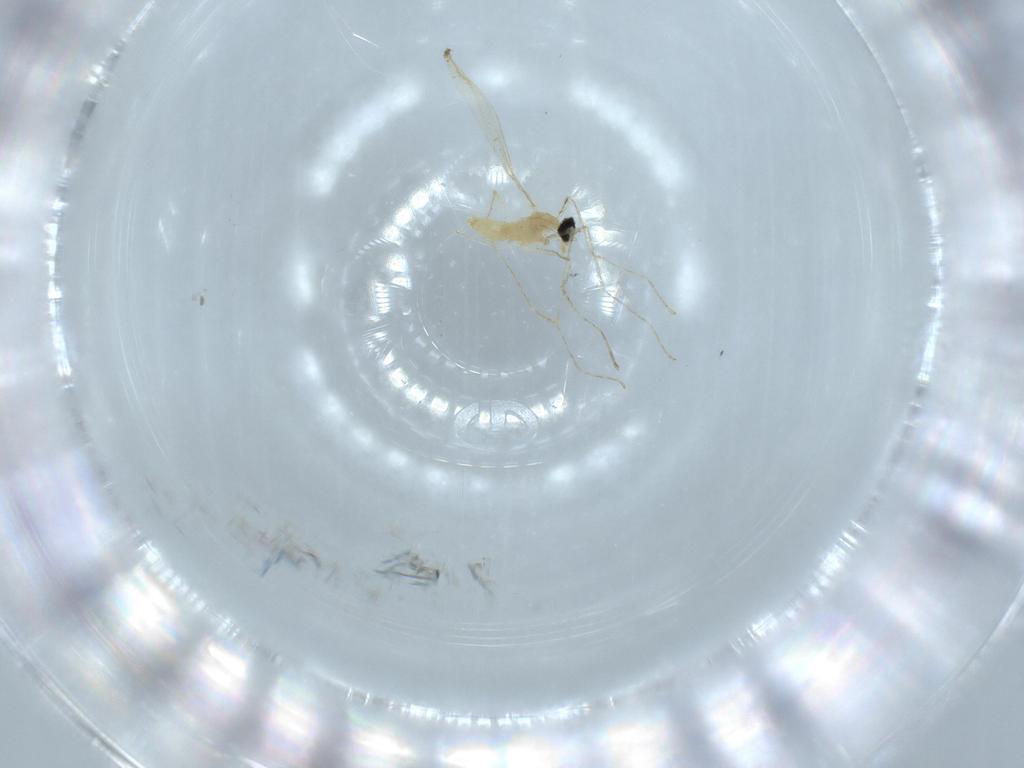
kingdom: Animalia
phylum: Arthropoda
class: Insecta
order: Diptera
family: Cecidomyiidae
